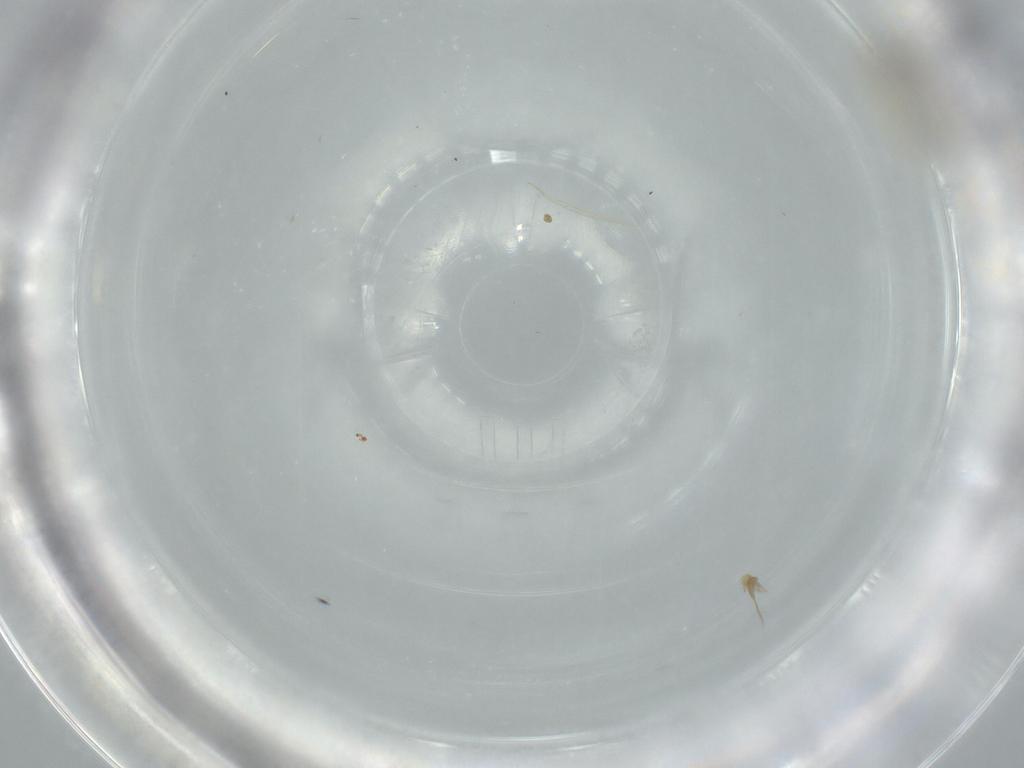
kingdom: Animalia
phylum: Arthropoda
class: Insecta
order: Psocodea
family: Pseudocaeciliidae
